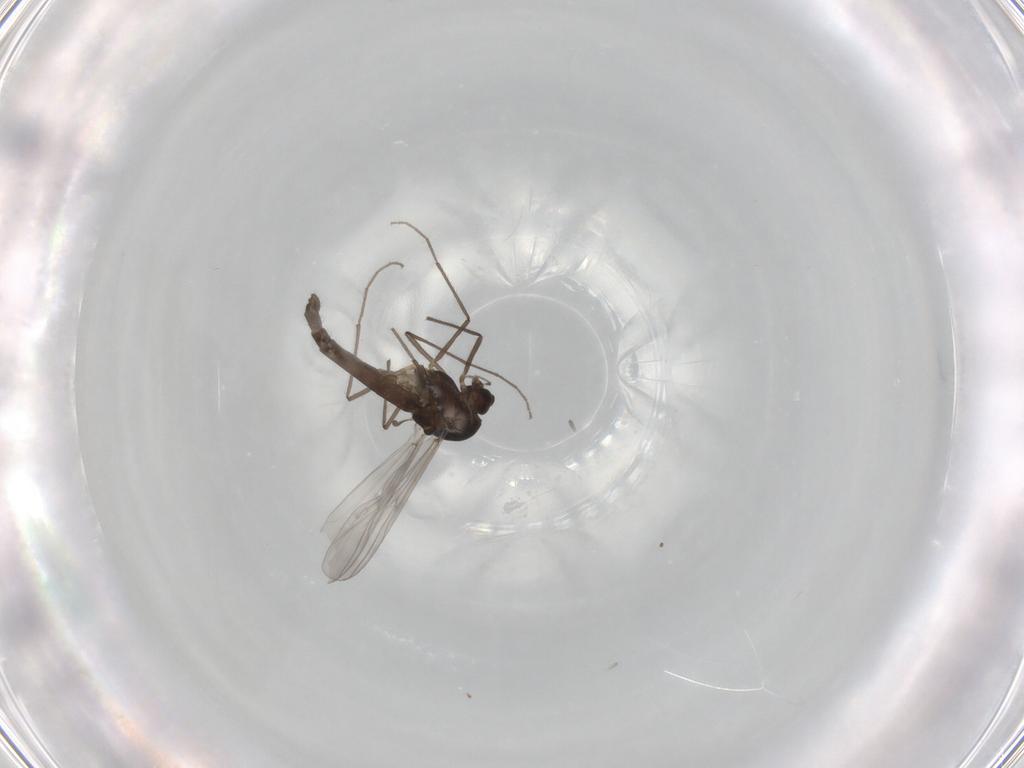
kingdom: Animalia
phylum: Arthropoda
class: Insecta
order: Diptera
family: Chironomidae
